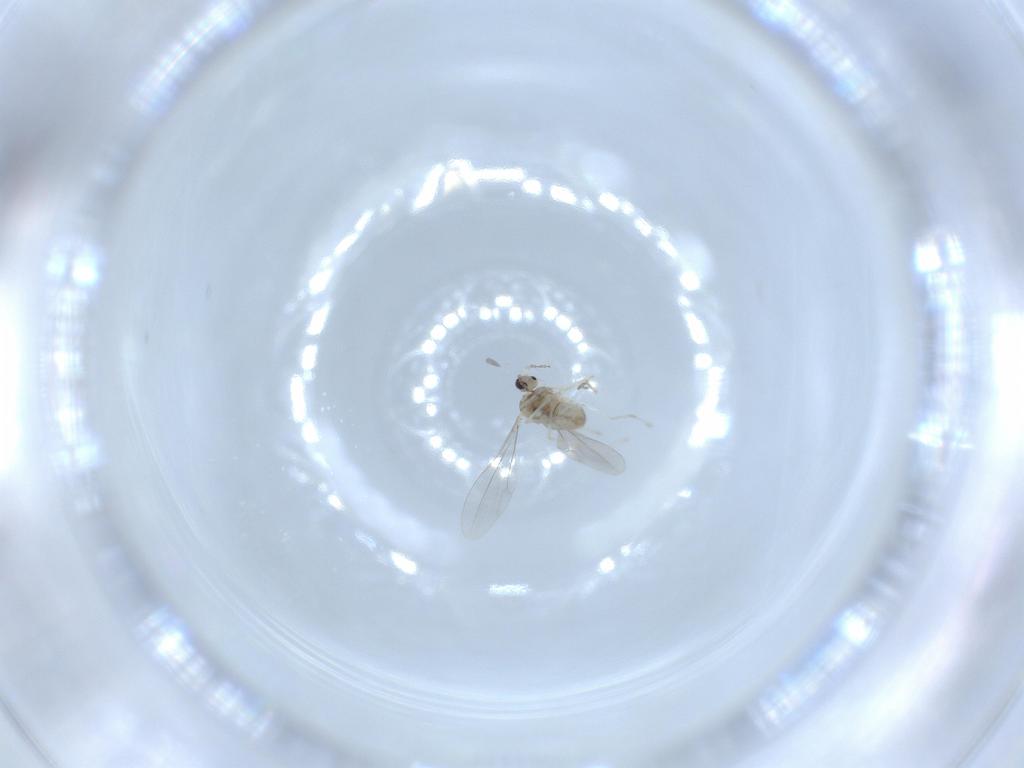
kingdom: Animalia
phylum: Arthropoda
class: Insecta
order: Diptera
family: Cecidomyiidae
